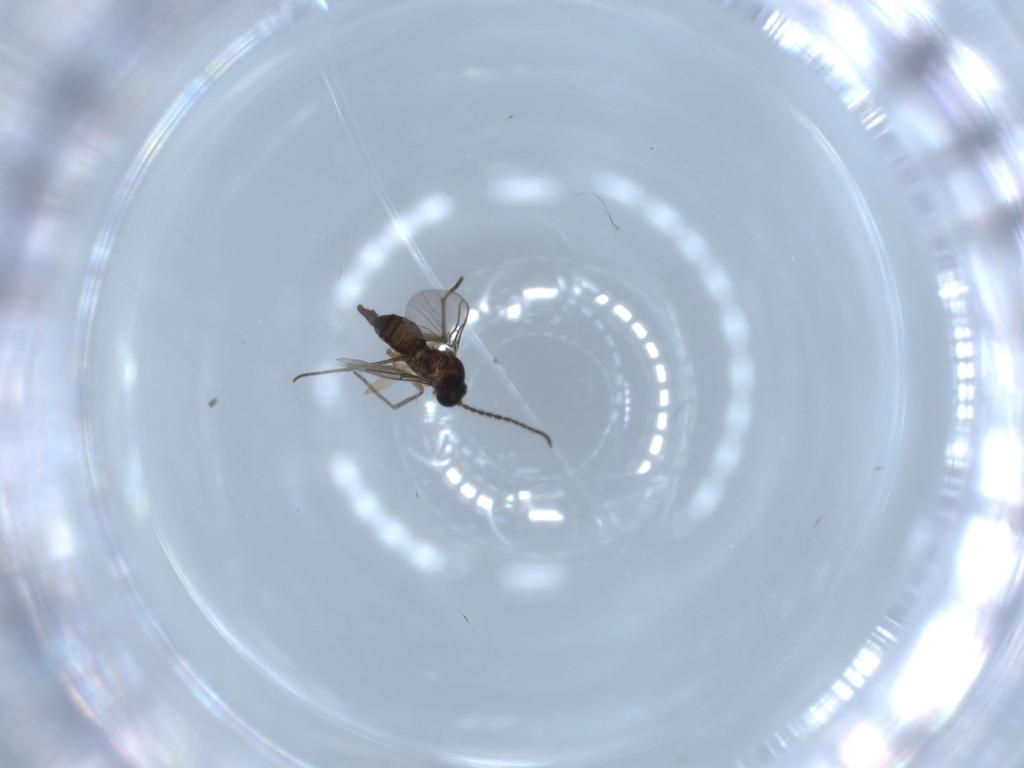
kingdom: Animalia
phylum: Arthropoda
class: Insecta
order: Diptera
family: Sciaridae
